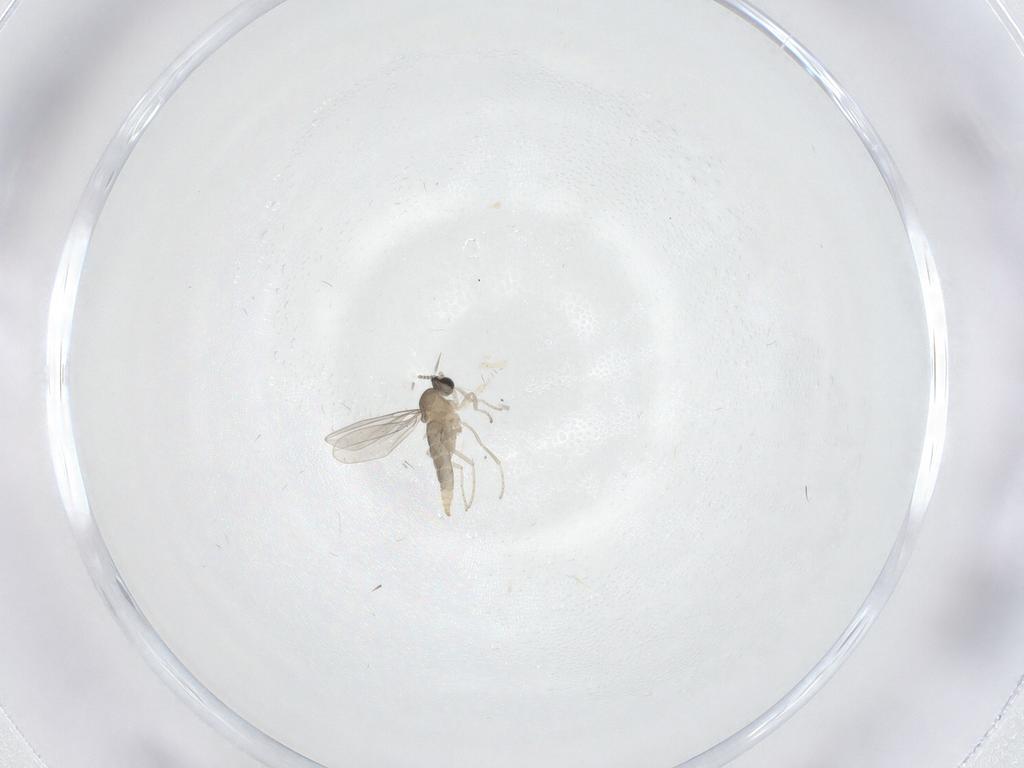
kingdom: Animalia
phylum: Arthropoda
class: Insecta
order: Diptera
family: Cecidomyiidae
